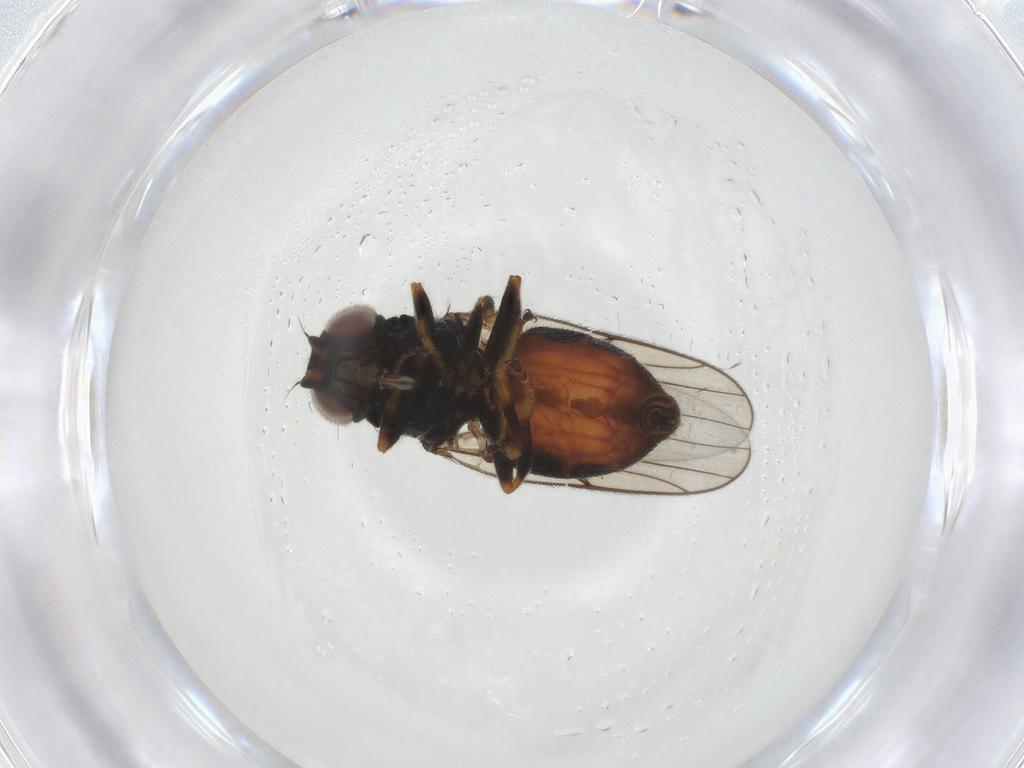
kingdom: Animalia
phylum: Arthropoda
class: Insecta
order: Diptera
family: Chloropidae
